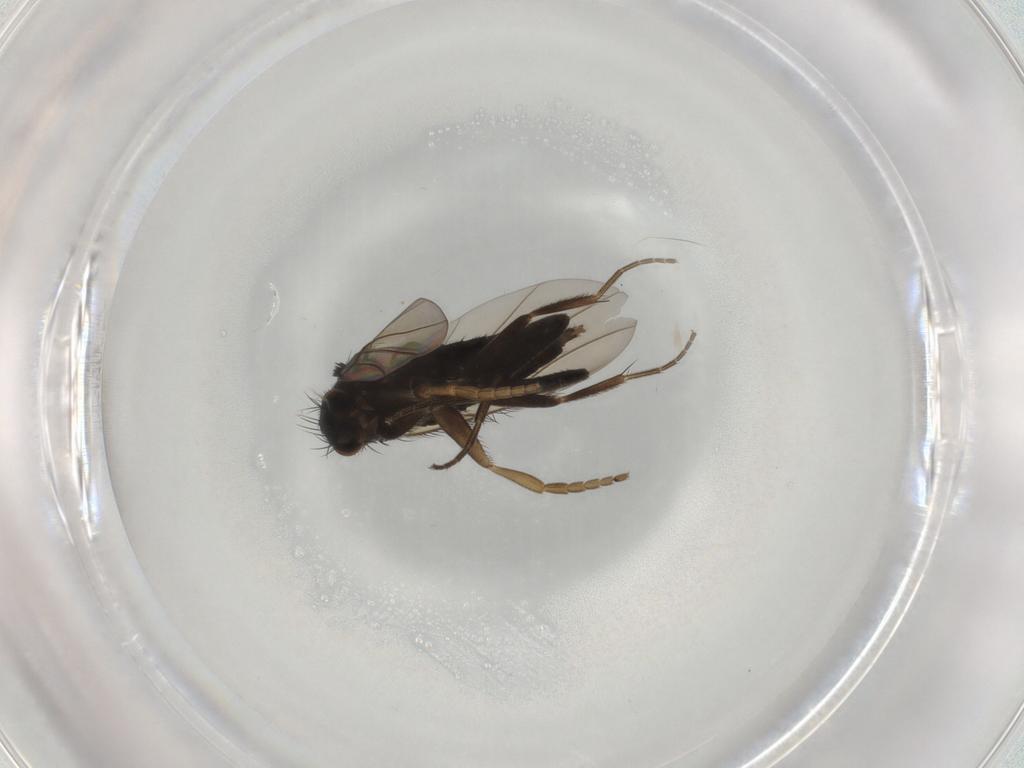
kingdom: Animalia
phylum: Arthropoda
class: Insecta
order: Diptera
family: Phoridae
